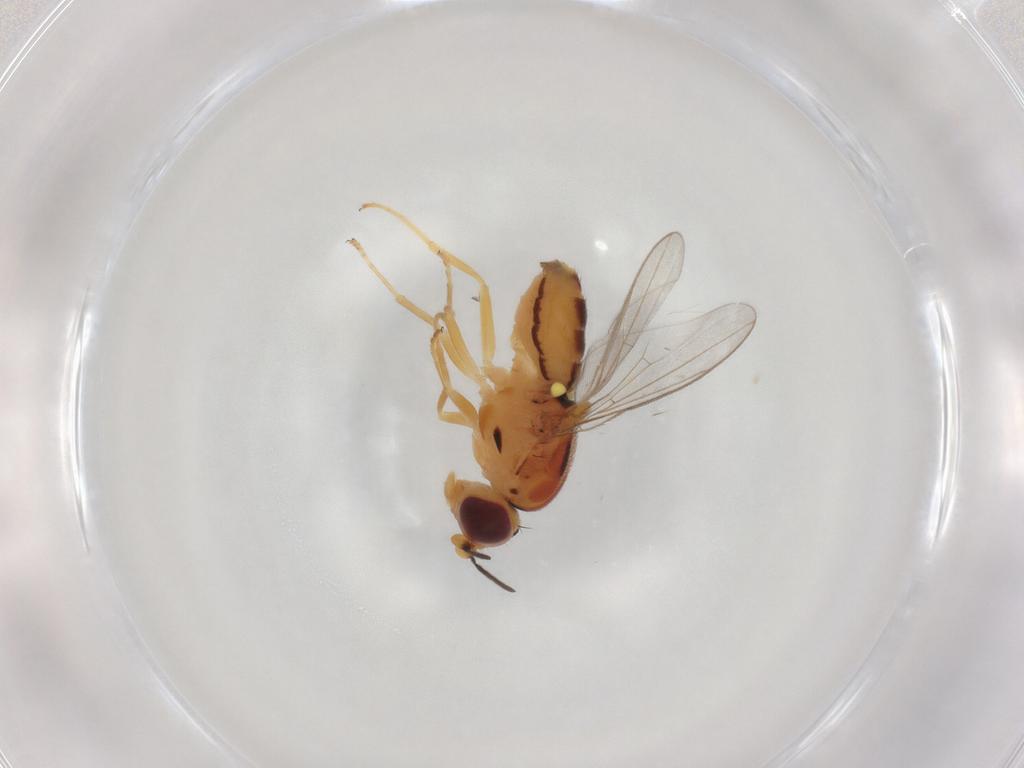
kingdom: Animalia
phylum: Arthropoda
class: Insecta
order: Diptera
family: Chloropidae
